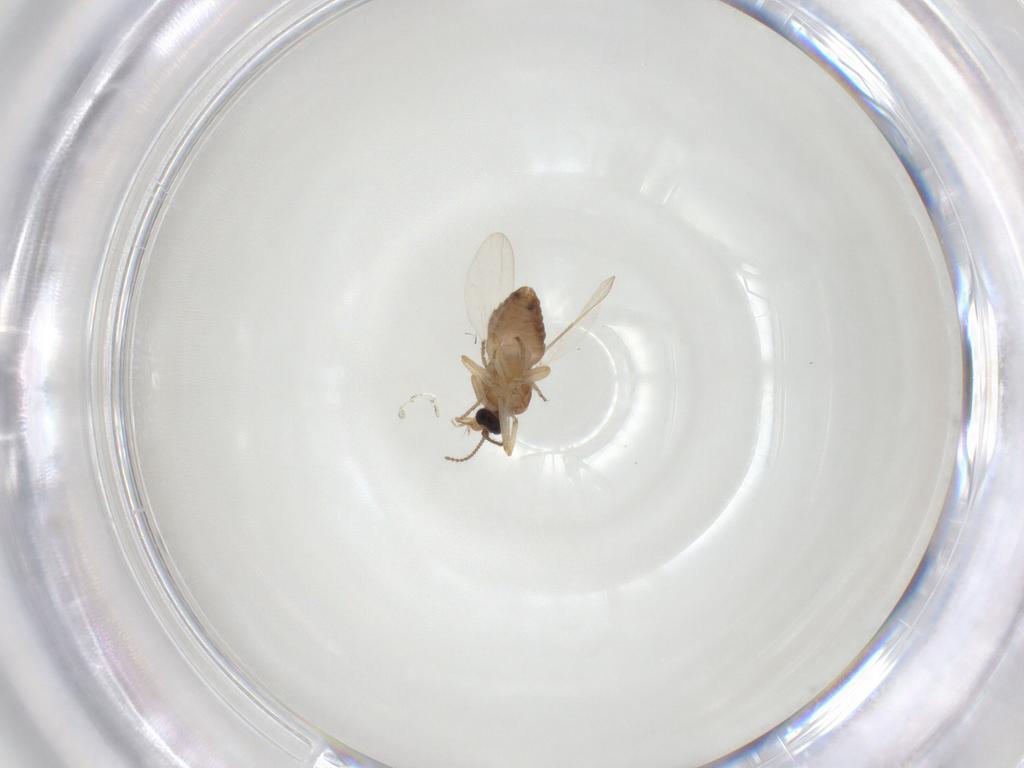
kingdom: Animalia
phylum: Arthropoda
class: Insecta
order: Diptera
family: Ceratopogonidae
